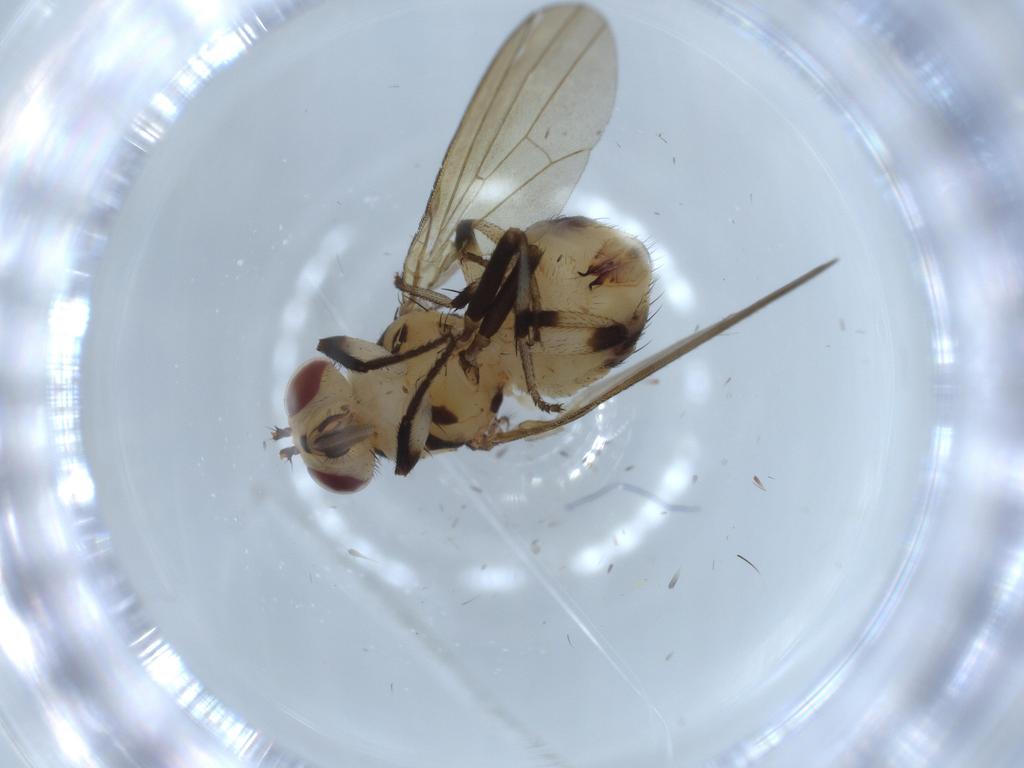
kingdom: Animalia
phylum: Arthropoda
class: Insecta
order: Diptera
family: Lauxaniidae
